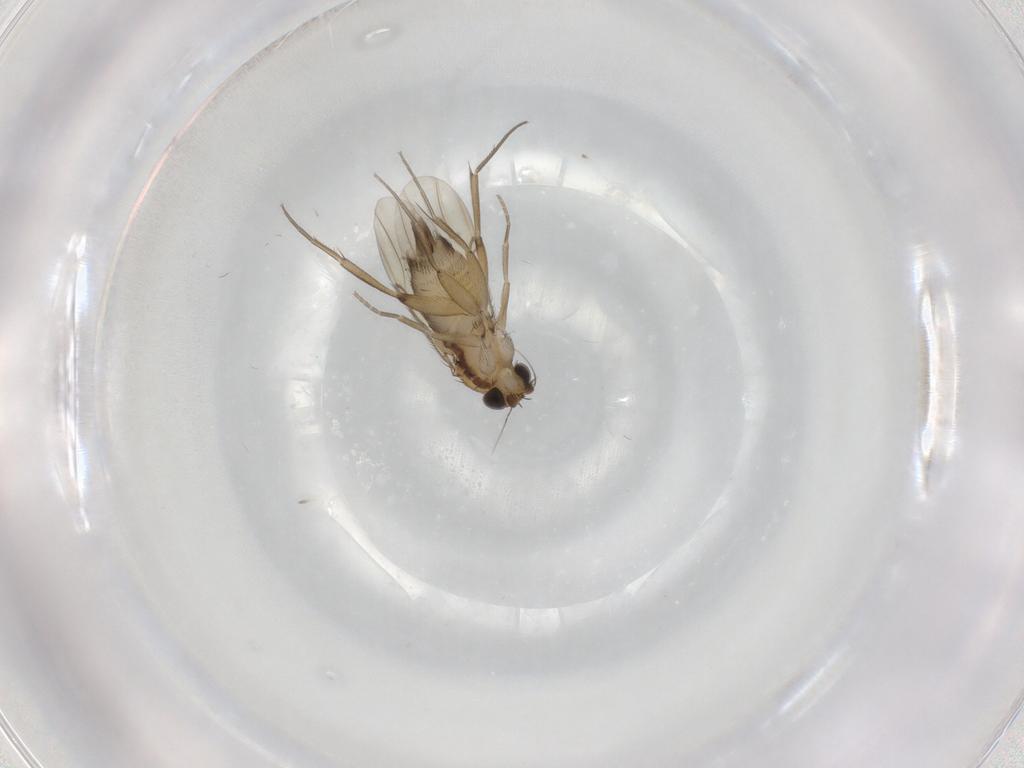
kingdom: Animalia
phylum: Arthropoda
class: Insecta
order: Diptera
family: Phoridae
